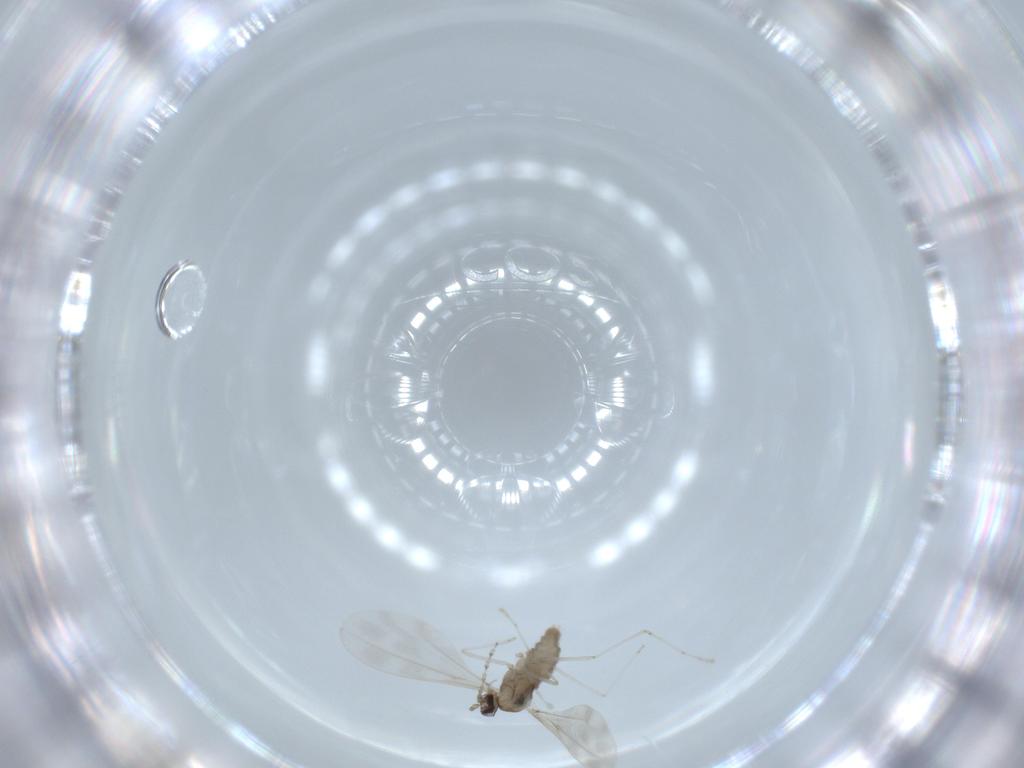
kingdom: Animalia
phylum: Arthropoda
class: Insecta
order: Diptera
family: Cecidomyiidae
